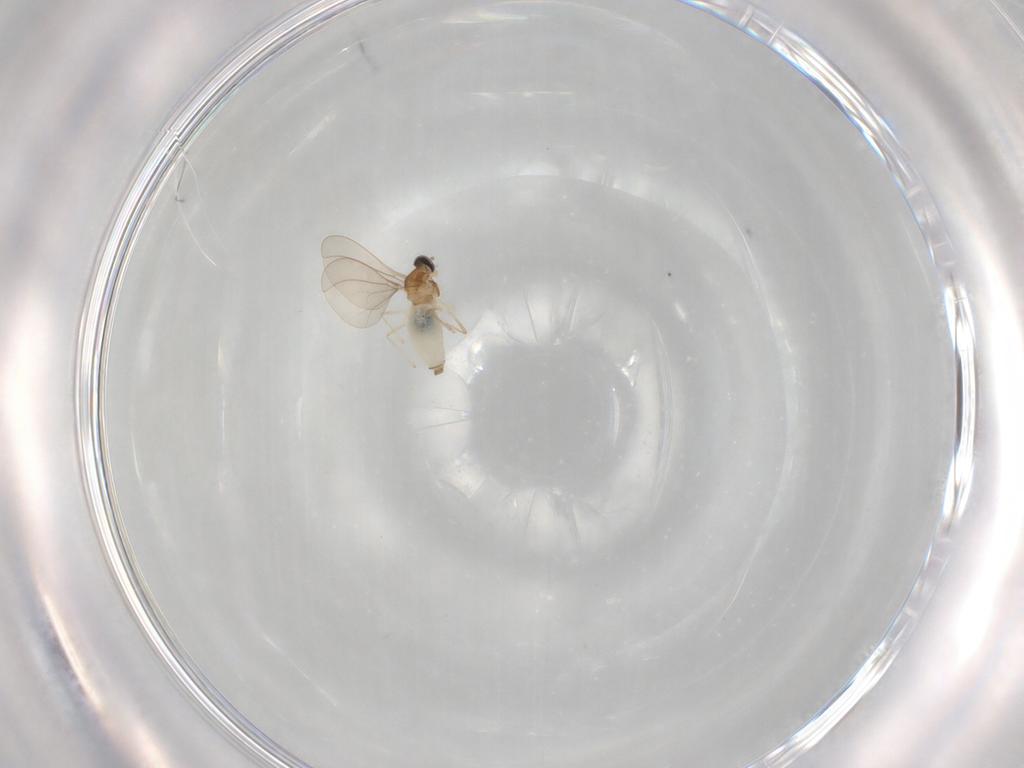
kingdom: Animalia
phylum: Arthropoda
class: Insecta
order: Diptera
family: Cecidomyiidae
